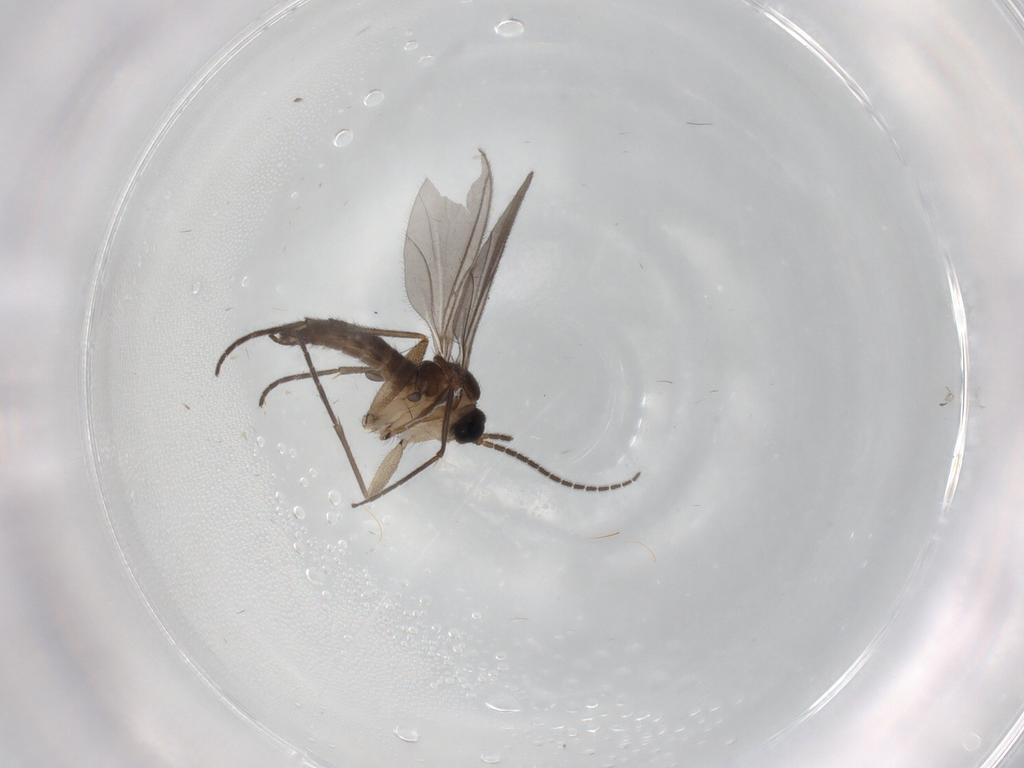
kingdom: Animalia
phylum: Arthropoda
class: Insecta
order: Diptera
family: Sciaridae
